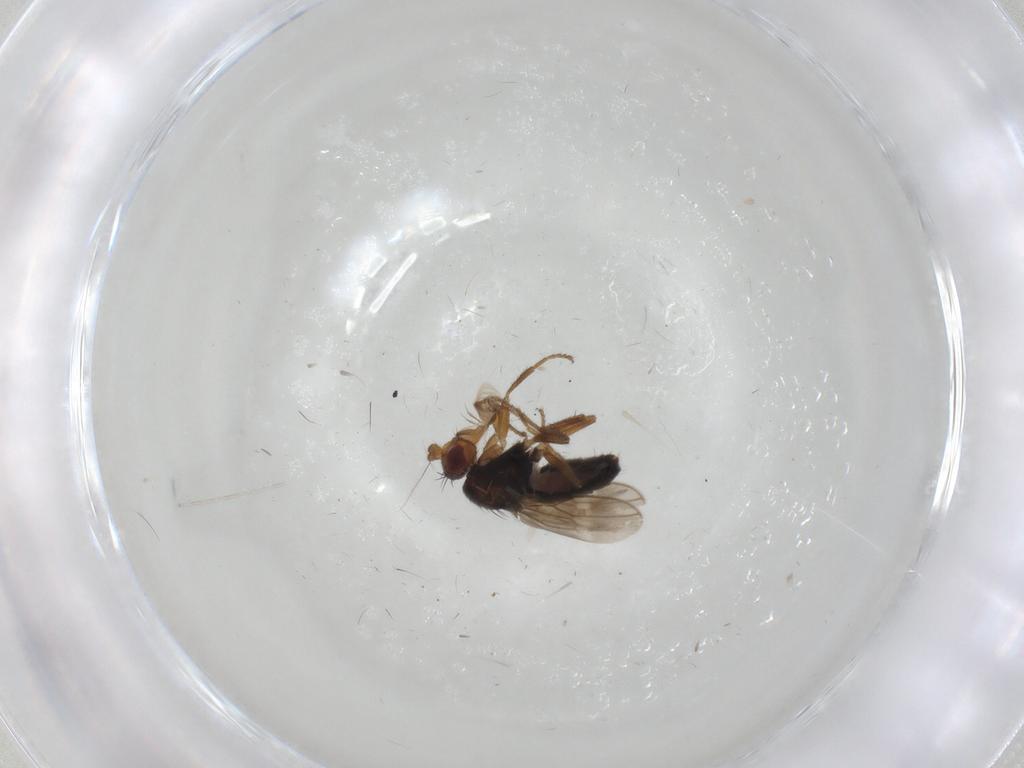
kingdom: Animalia
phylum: Arthropoda
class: Insecta
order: Diptera
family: Sphaeroceridae
